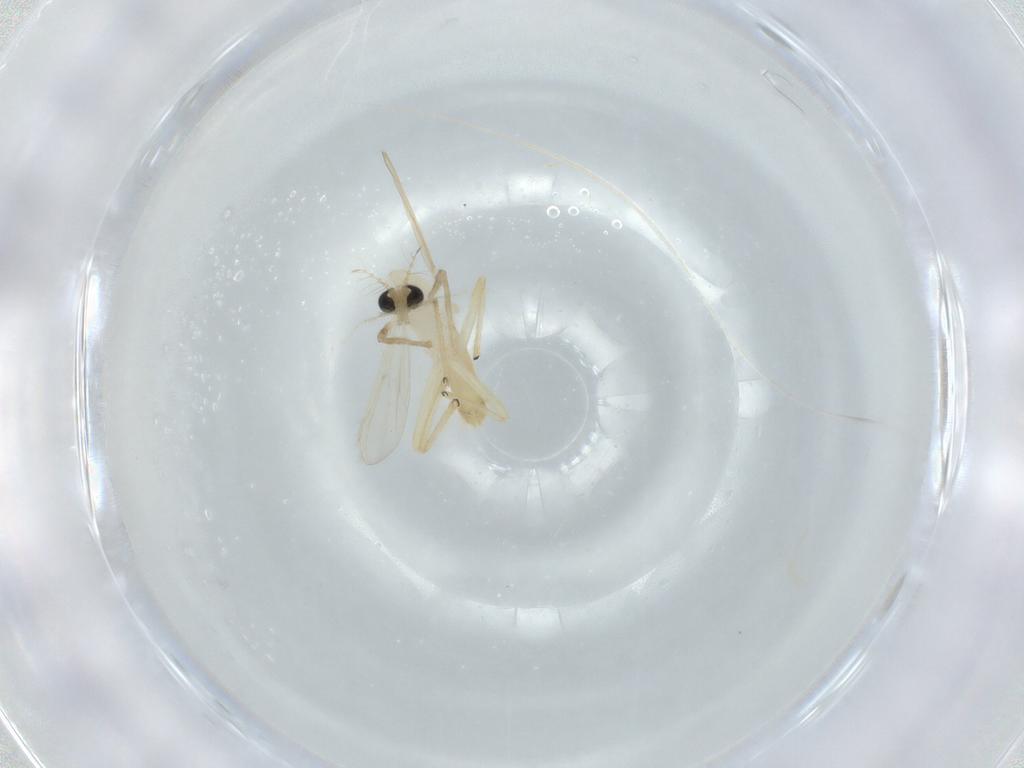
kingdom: Animalia
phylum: Arthropoda
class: Insecta
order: Diptera
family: Chironomidae
